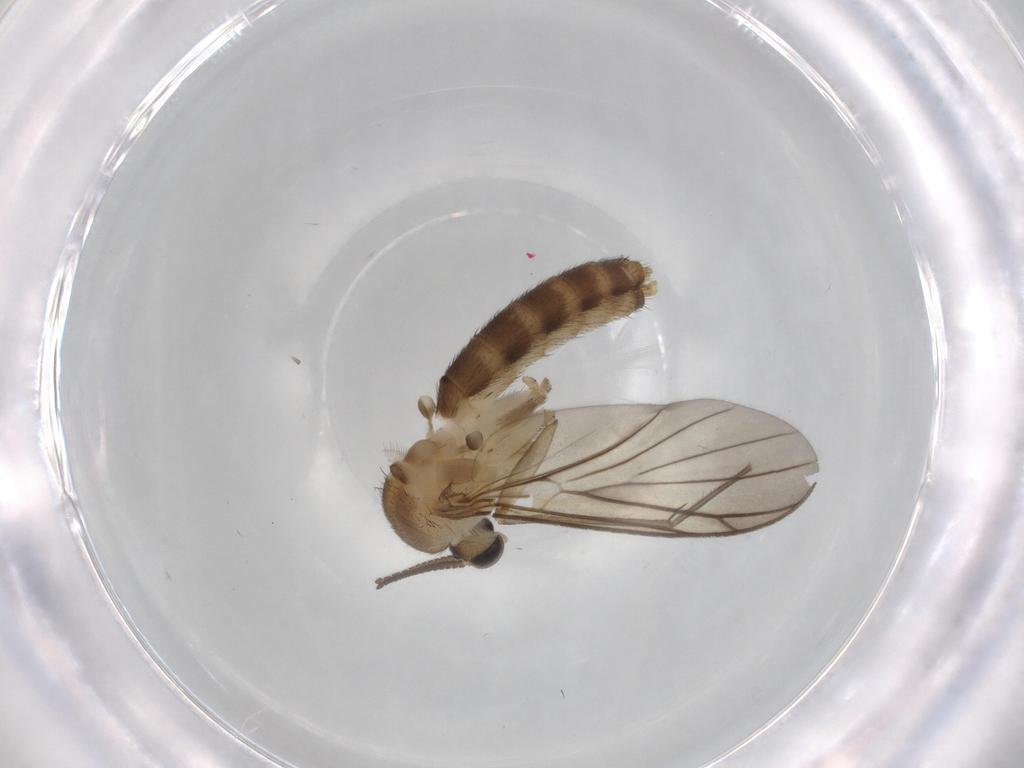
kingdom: Animalia
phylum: Arthropoda
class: Insecta
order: Diptera
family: Mycetophilidae
